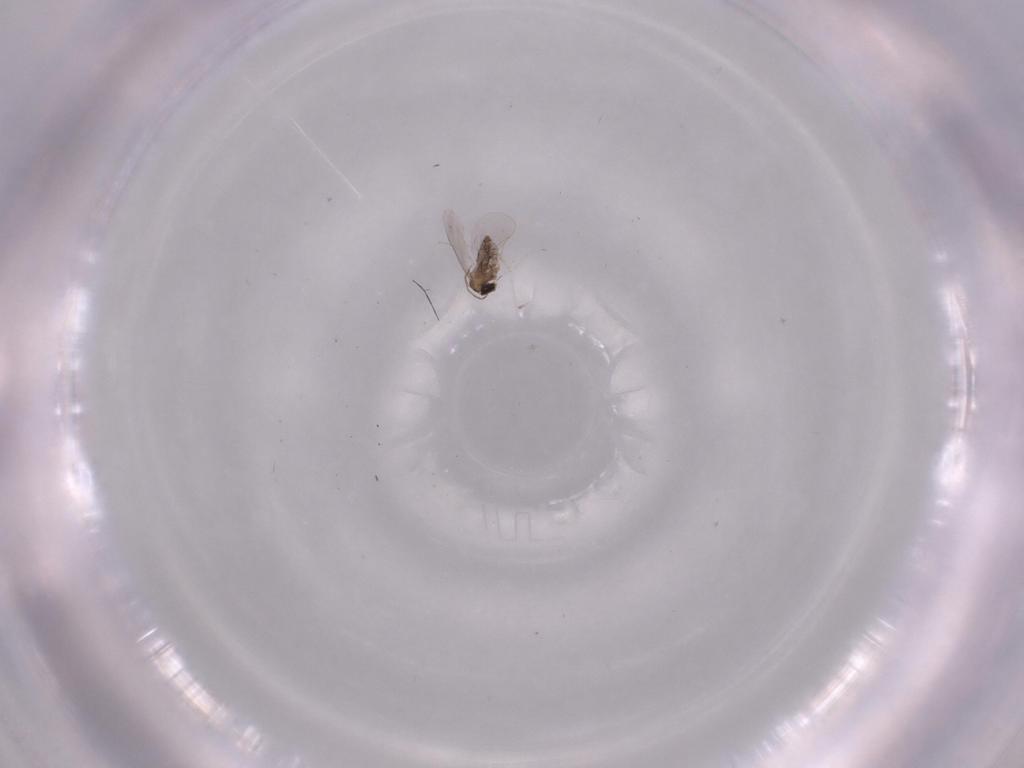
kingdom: Animalia
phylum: Arthropoda
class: Insecta
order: Diptera
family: Cecidomyiidae
